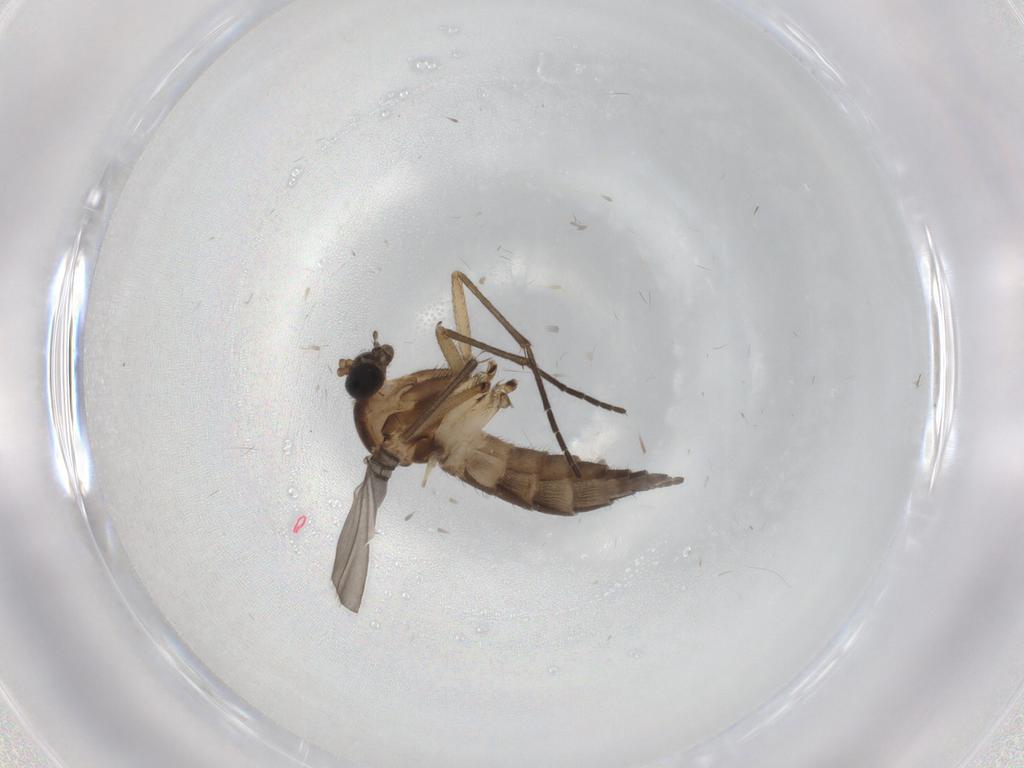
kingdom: Animalia
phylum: Arthropoda
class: Insecta
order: Diptera
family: Sciaridae
